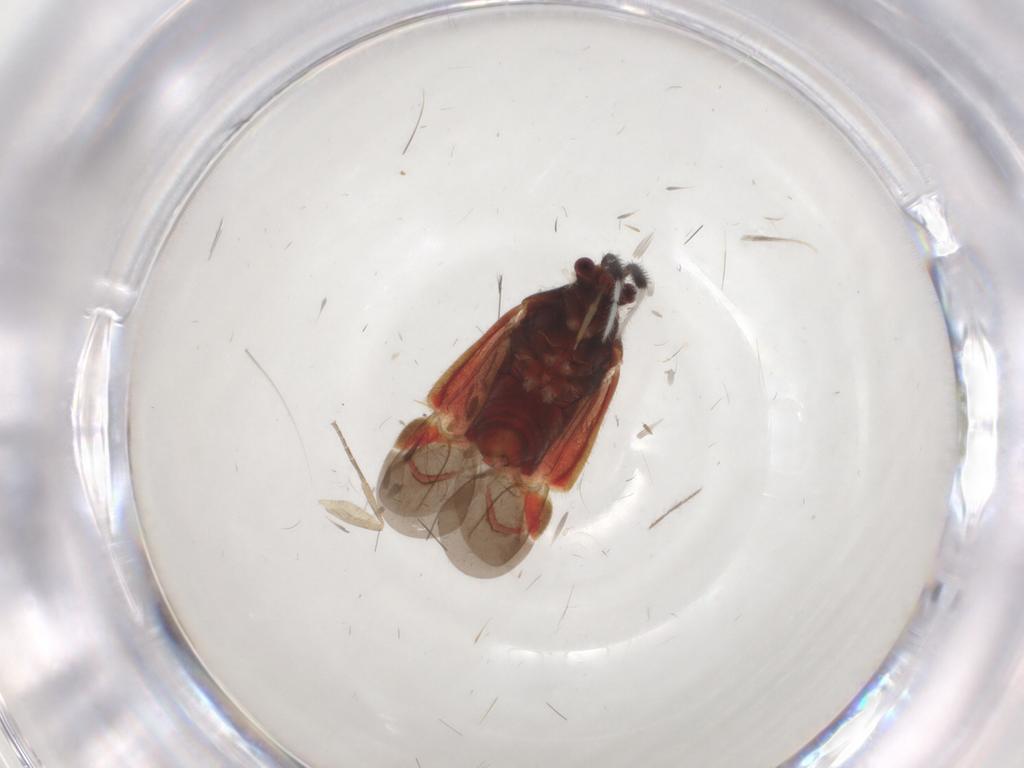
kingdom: Animalia
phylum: Arthropoda
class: Insecta
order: Hemiptera
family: Miridae
